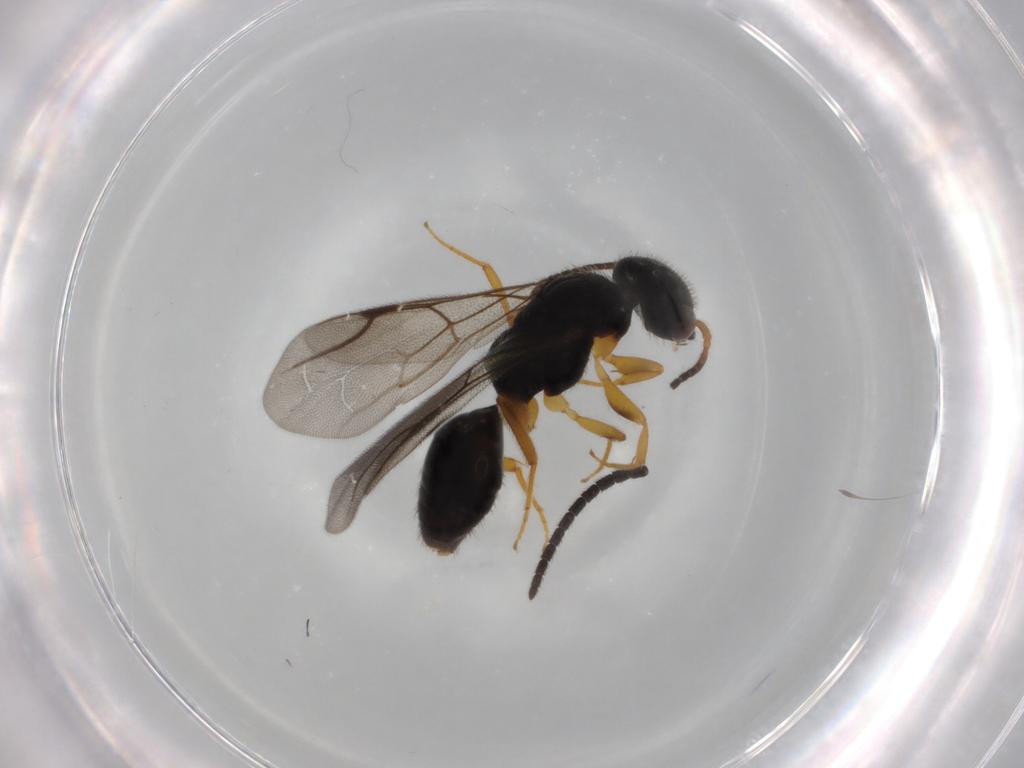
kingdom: Animalia
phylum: Arthropoda
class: Insecta
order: Hymenoptera
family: Bethylidae
